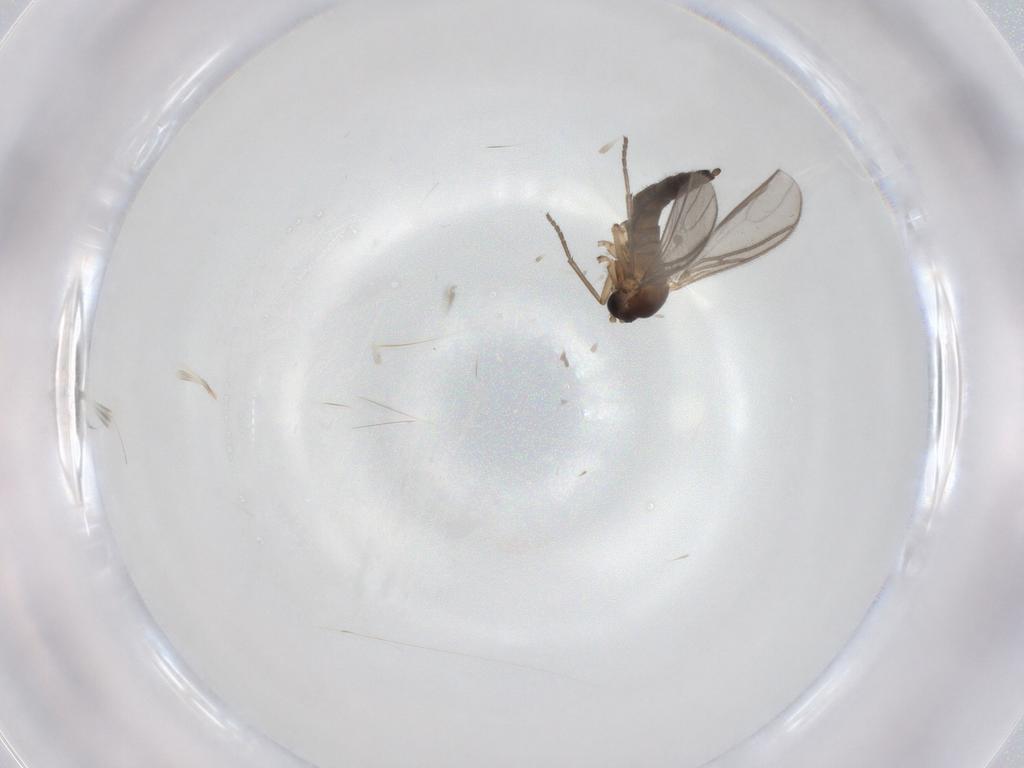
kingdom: Animalia
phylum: Arthropoda
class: Insecta
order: Diptera
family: Sciaridae
